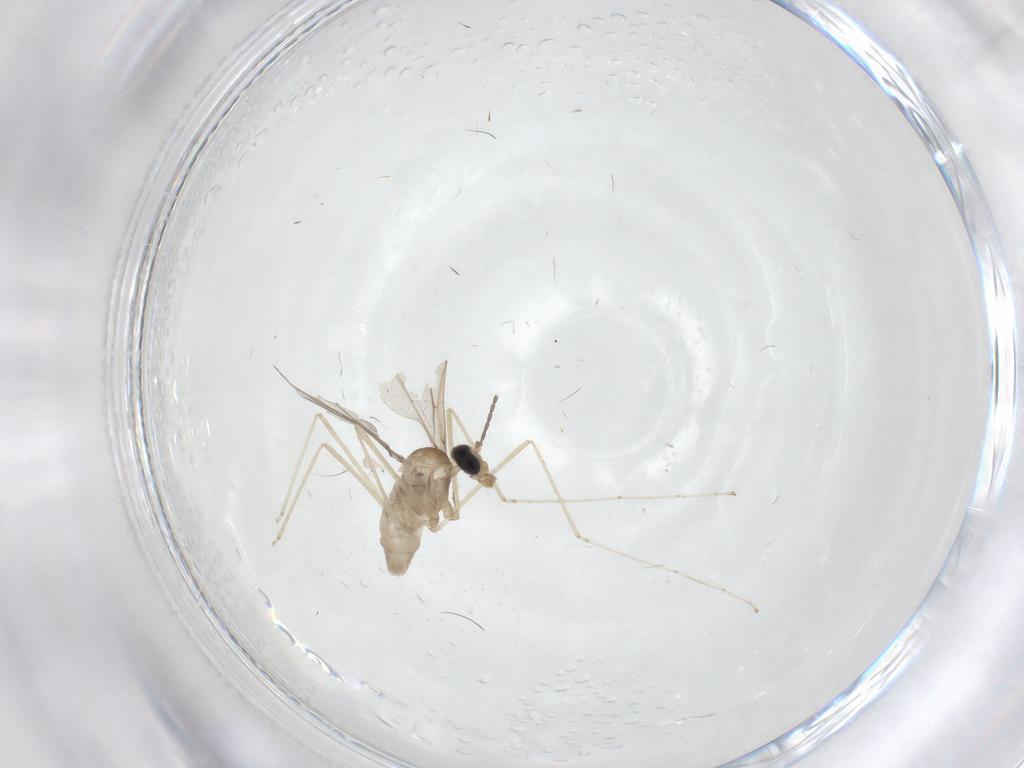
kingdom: Animalia
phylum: Arthropoda
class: Insecta
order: Diptera
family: Cecidomyiidae
